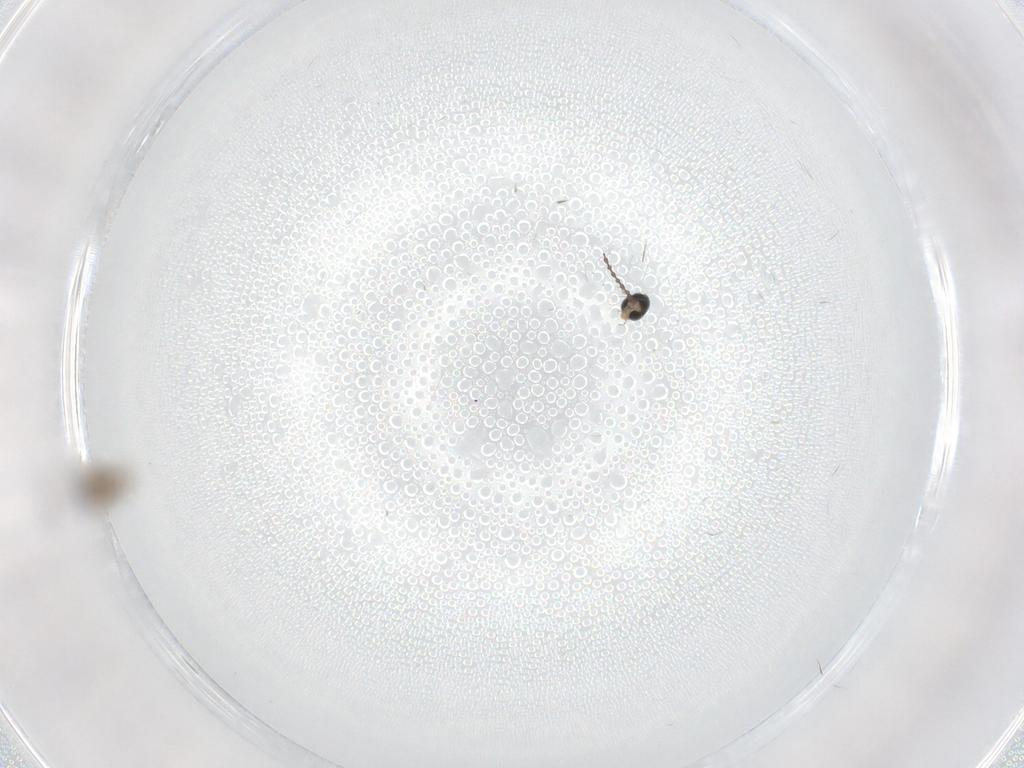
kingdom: Animalia
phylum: Arthropoda
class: Insecta
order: Diptera
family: Cecidomyiidae
